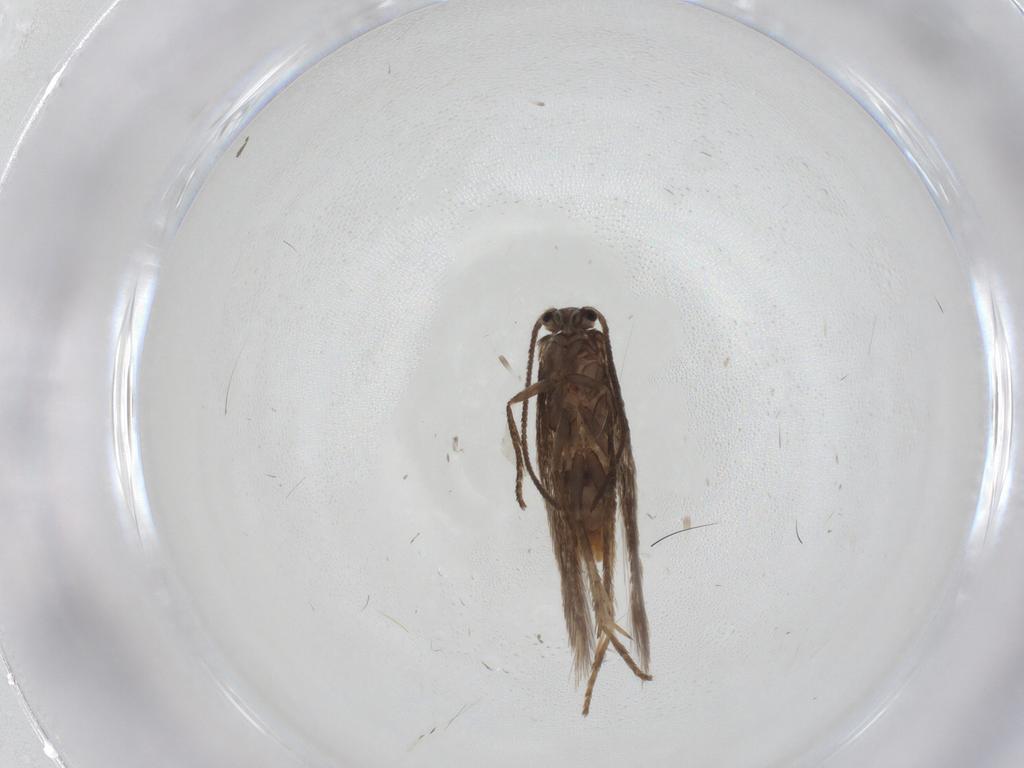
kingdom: Animalia
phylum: Arthropoda
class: Insecta
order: Lepidoptera
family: Nepticulidae
